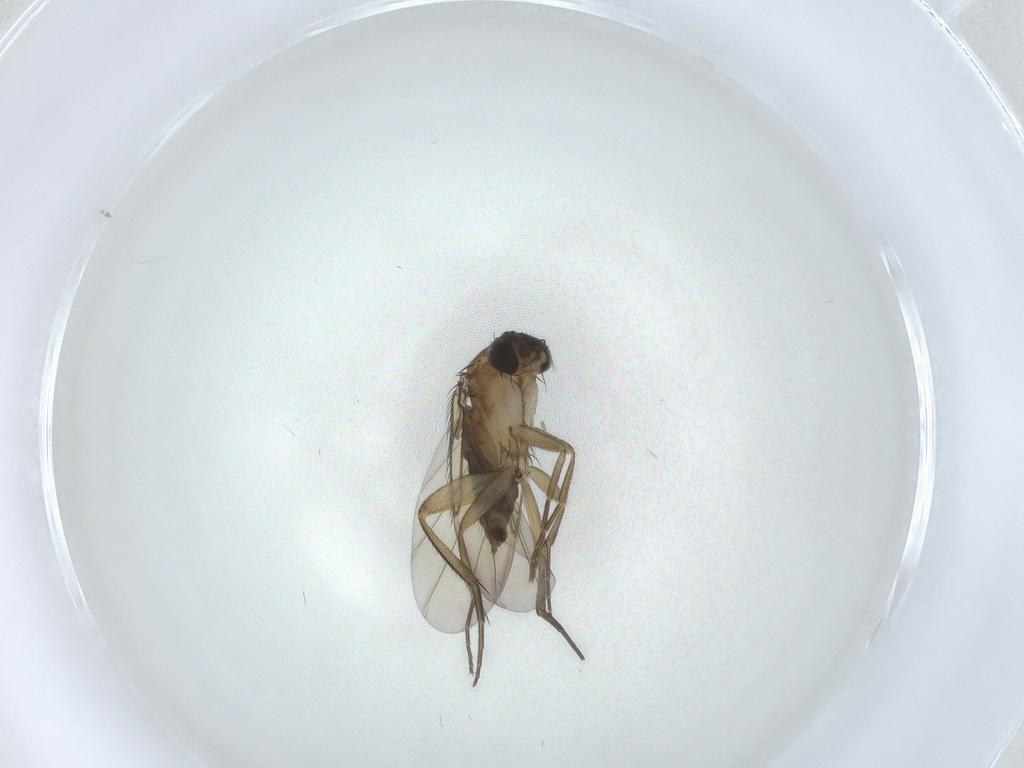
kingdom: Animalia
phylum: Arthropoda
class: Insecta
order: Diptera
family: Phoridae
